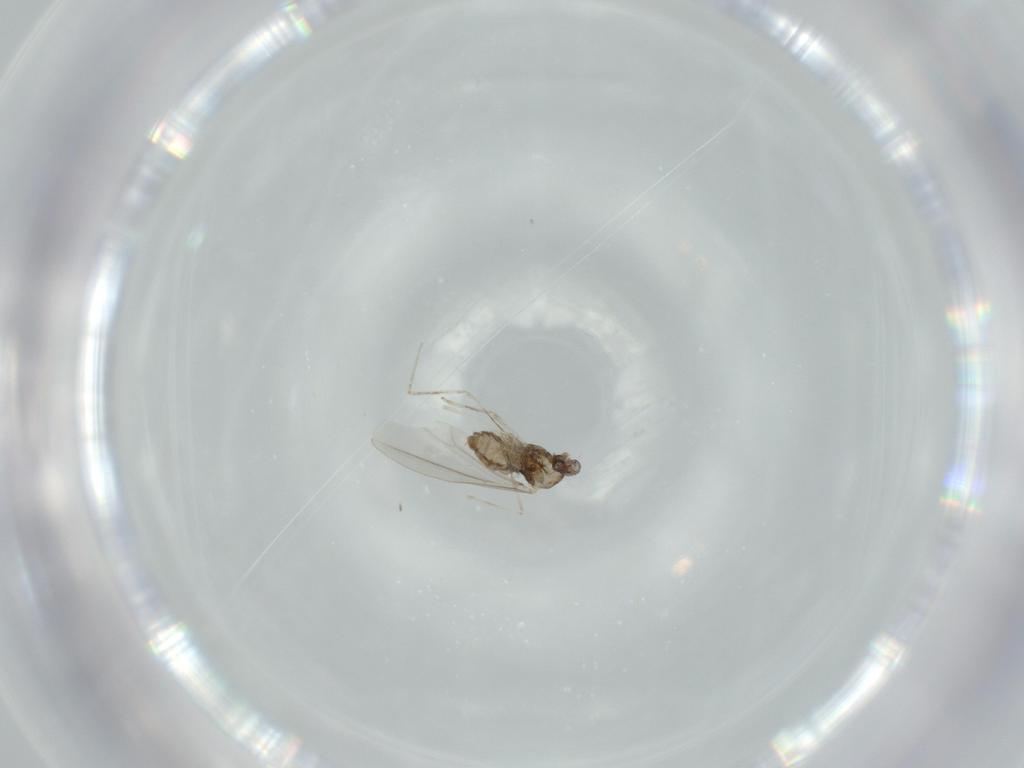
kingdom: Animalia
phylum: Arthropoda
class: Insecta
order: Diptera
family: Cecidomyiidae
